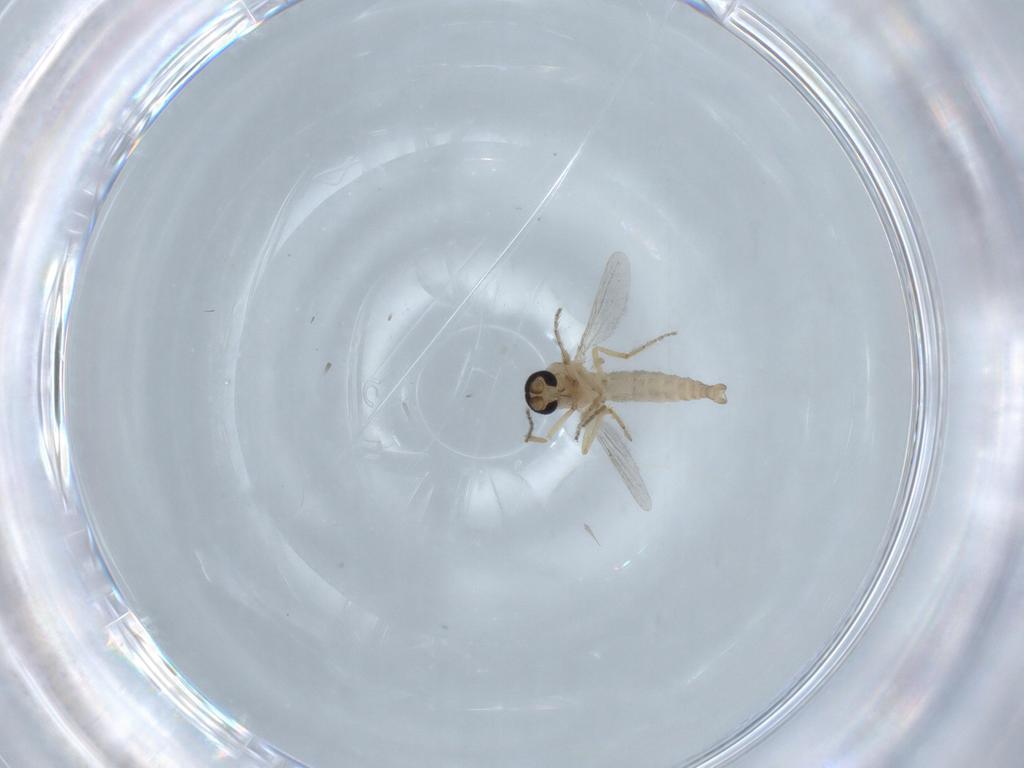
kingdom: Animalia
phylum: Arthropoda
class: Insecta
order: Diptera
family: Ceratopogonidae
